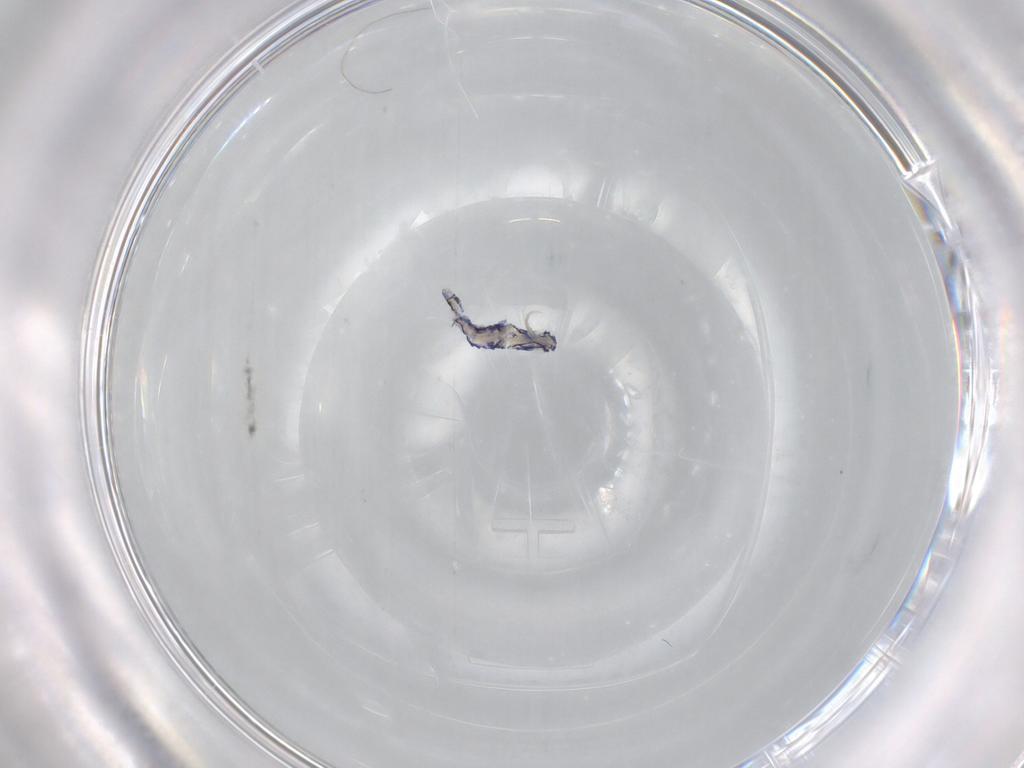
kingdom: Animalia
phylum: Arthropoda
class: Collembola
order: Entomobryomorpha
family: Entomobryidae
